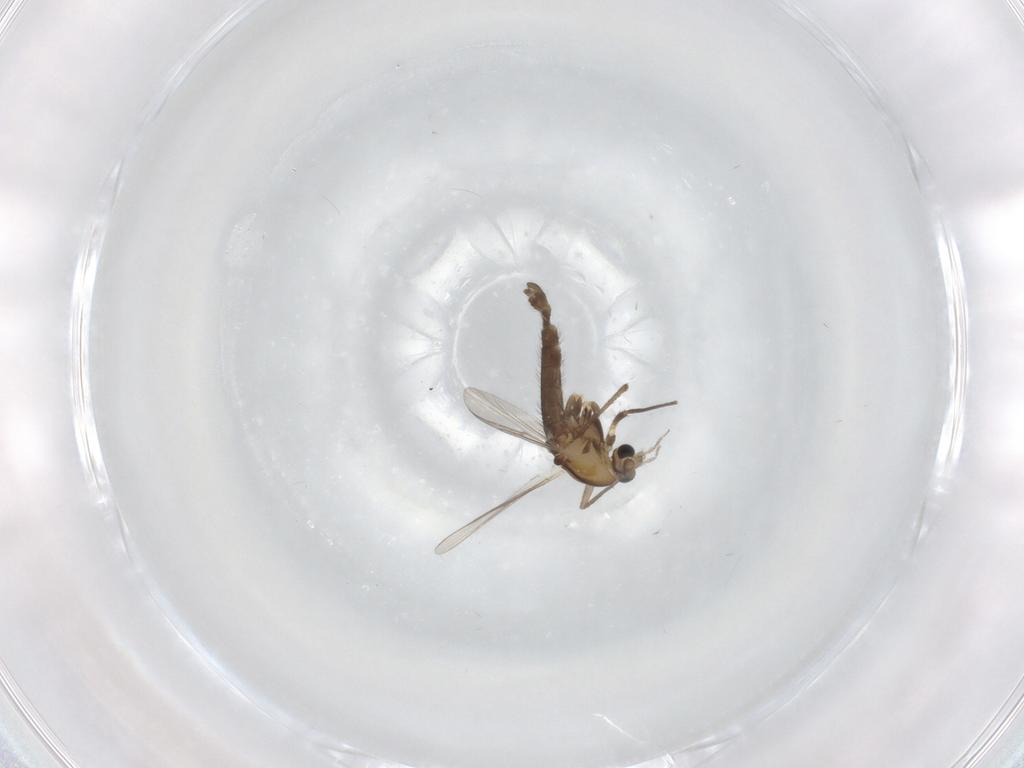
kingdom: Animalia
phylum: Arthropoda
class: Insecta
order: Diptera
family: Chironomidae
